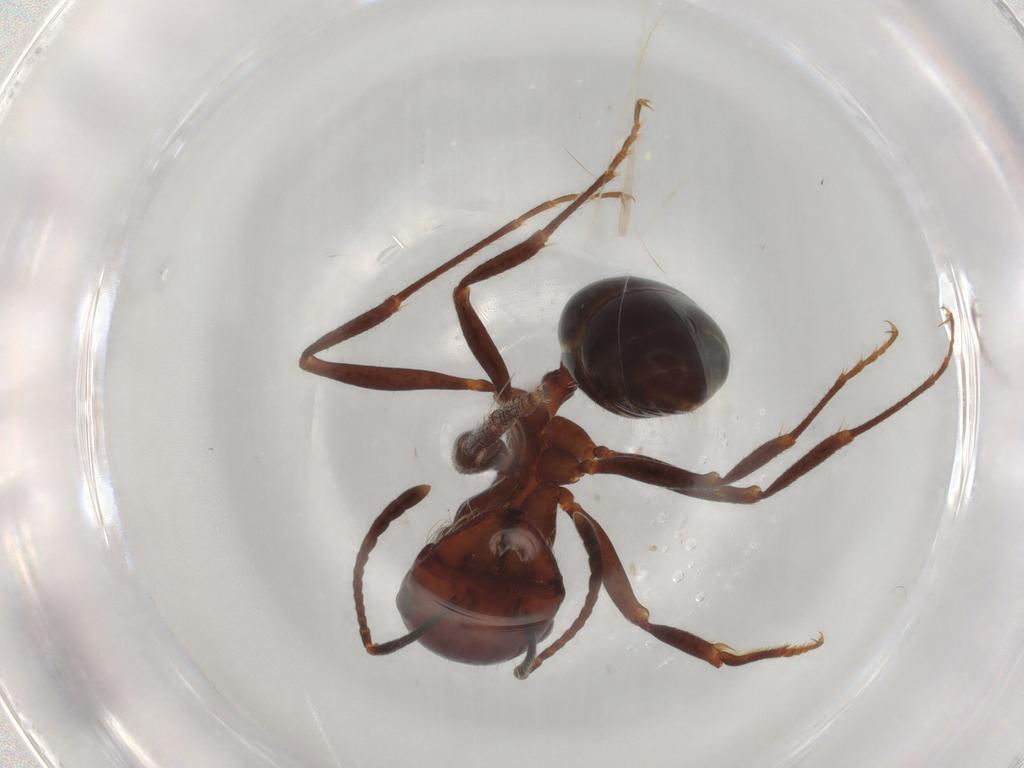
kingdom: Animalia
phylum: Arthropoda
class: Insecta
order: Hymenoptera
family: Formicidae
